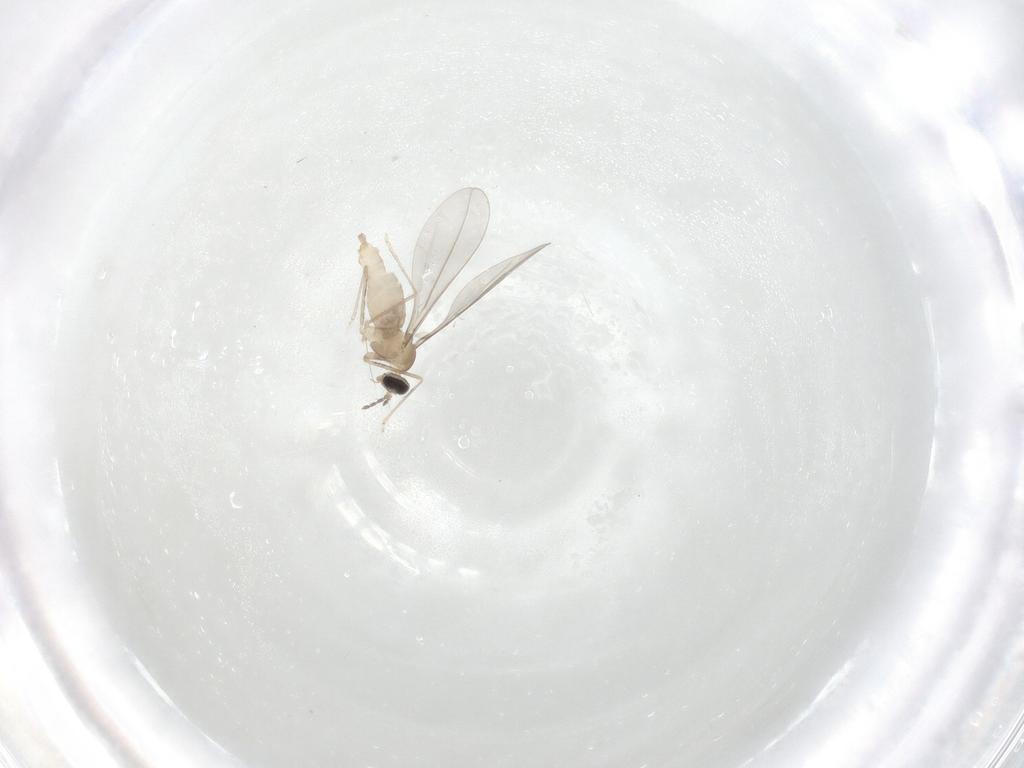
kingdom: Animalia
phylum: Arthropoda
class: Insecta
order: Diptera
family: Cecidomyiidae
